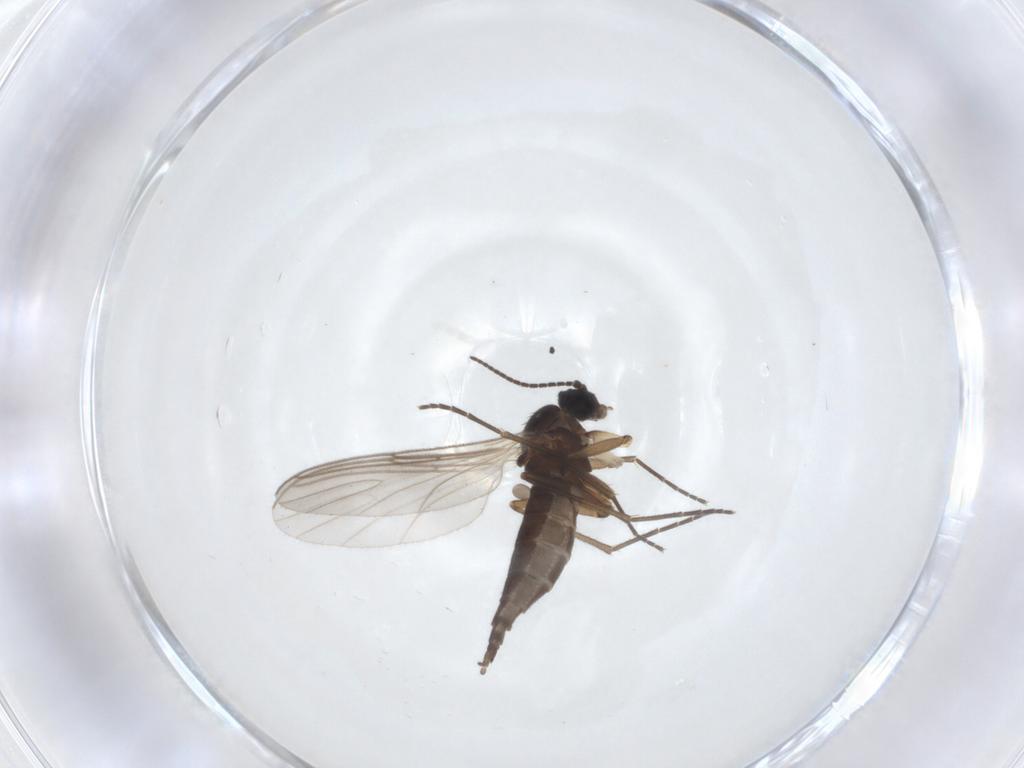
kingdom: Animalia
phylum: Arthropoda
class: Insecta
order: Diptera
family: Sciaridae
